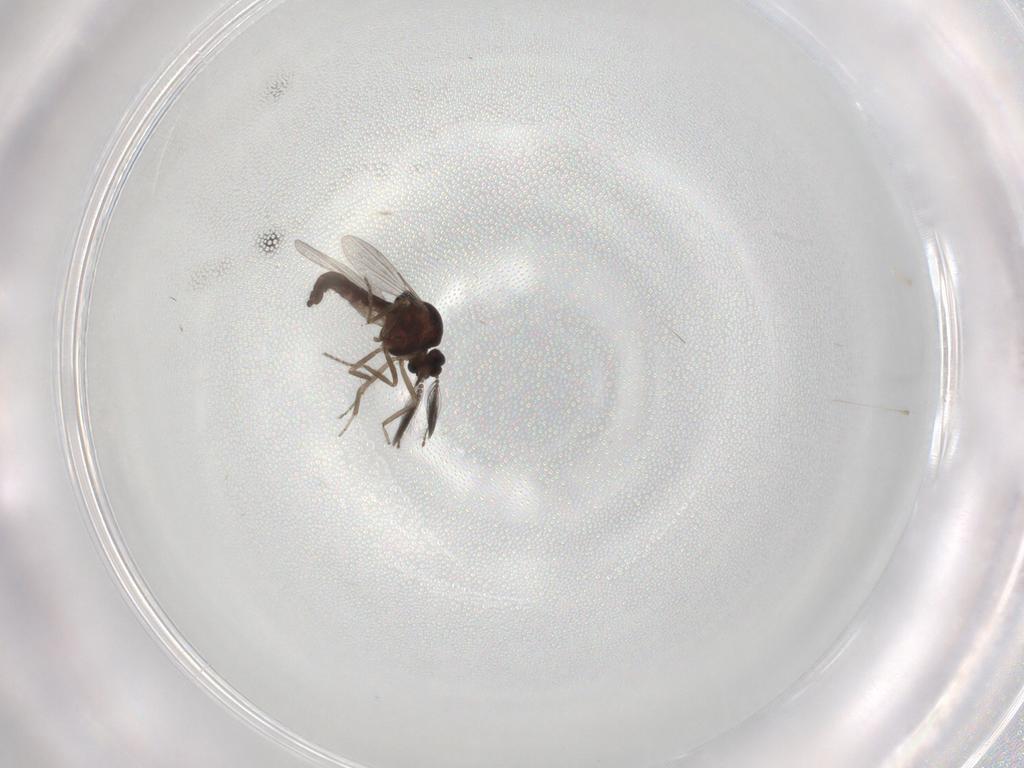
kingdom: Animalia
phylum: Arthropoda
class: Insecta
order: Diptera
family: Ceratopogonidae
